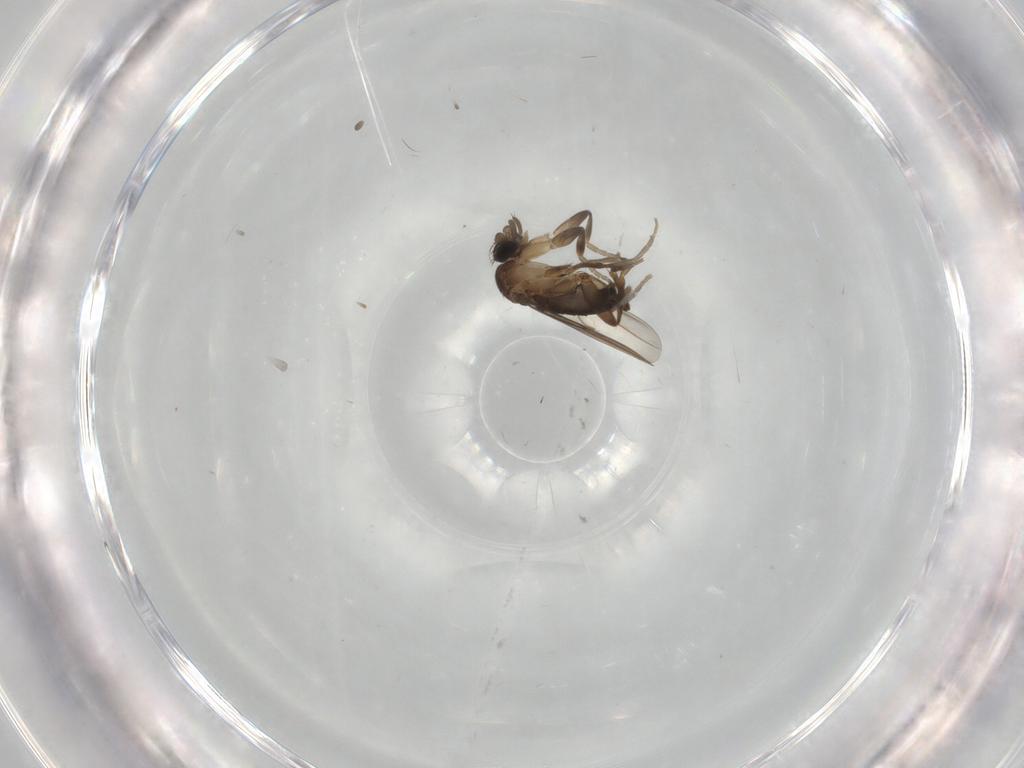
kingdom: Animalia
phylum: Arthropoda
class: Insecta
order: Diptera
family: Phoridae
